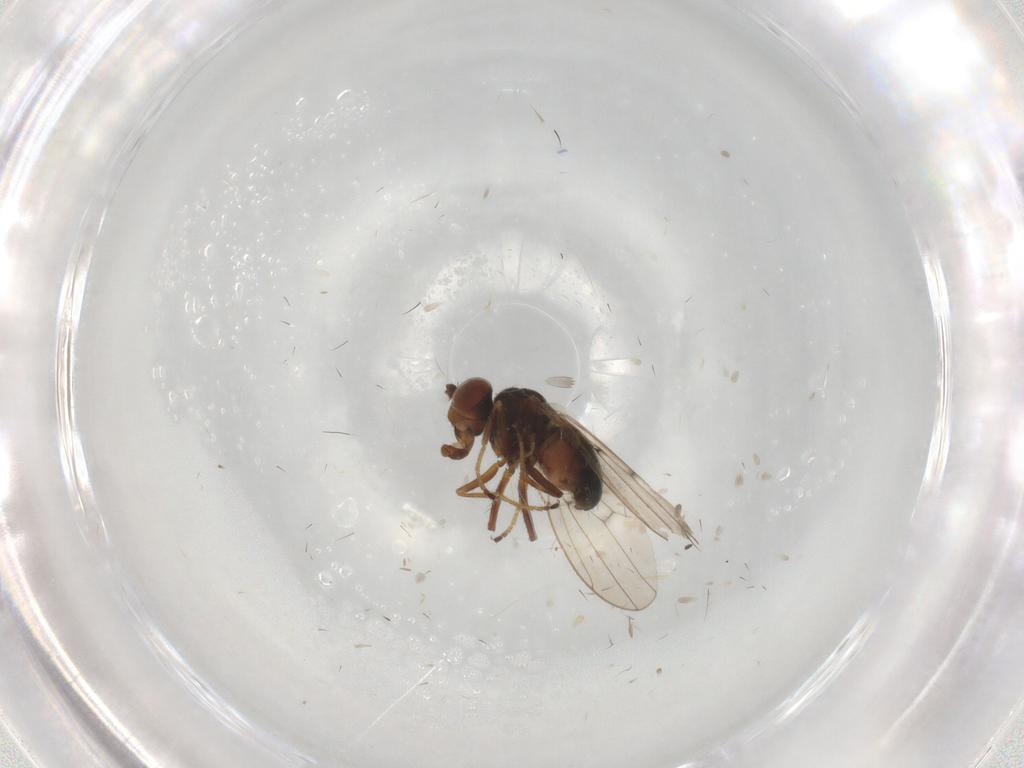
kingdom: Animalia
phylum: Arthropoda
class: Insecta
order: Diptera
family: Ephydridae
